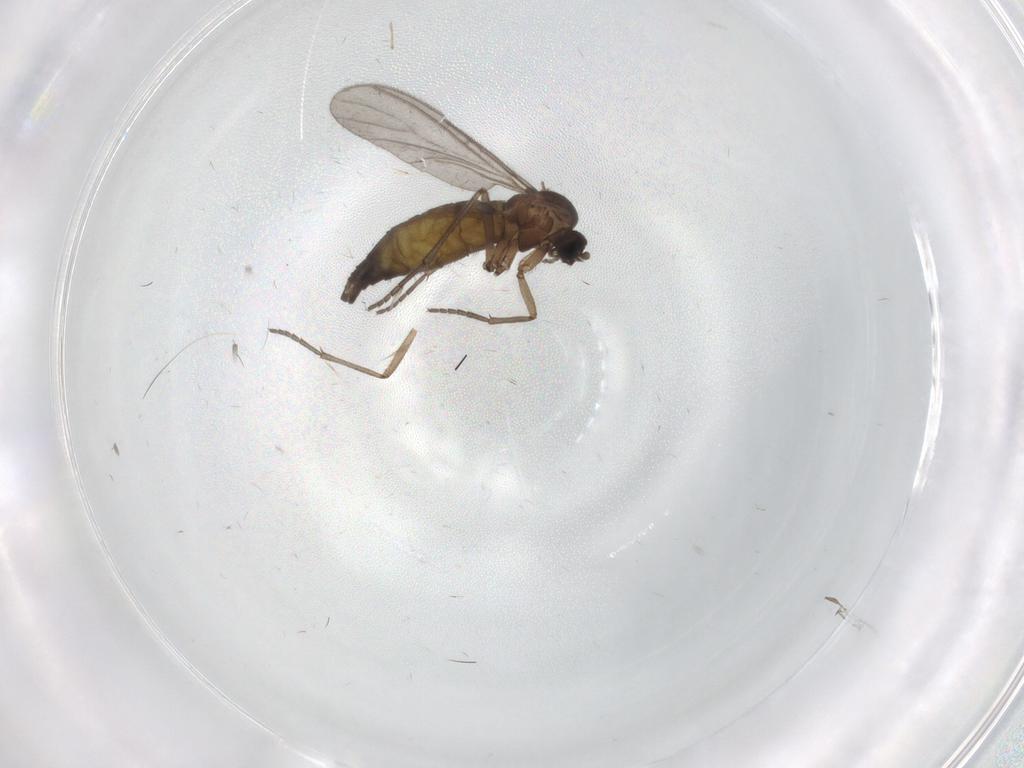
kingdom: Animalia
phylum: Arthropoda
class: Insecta
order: Diptera
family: Sciaridae
